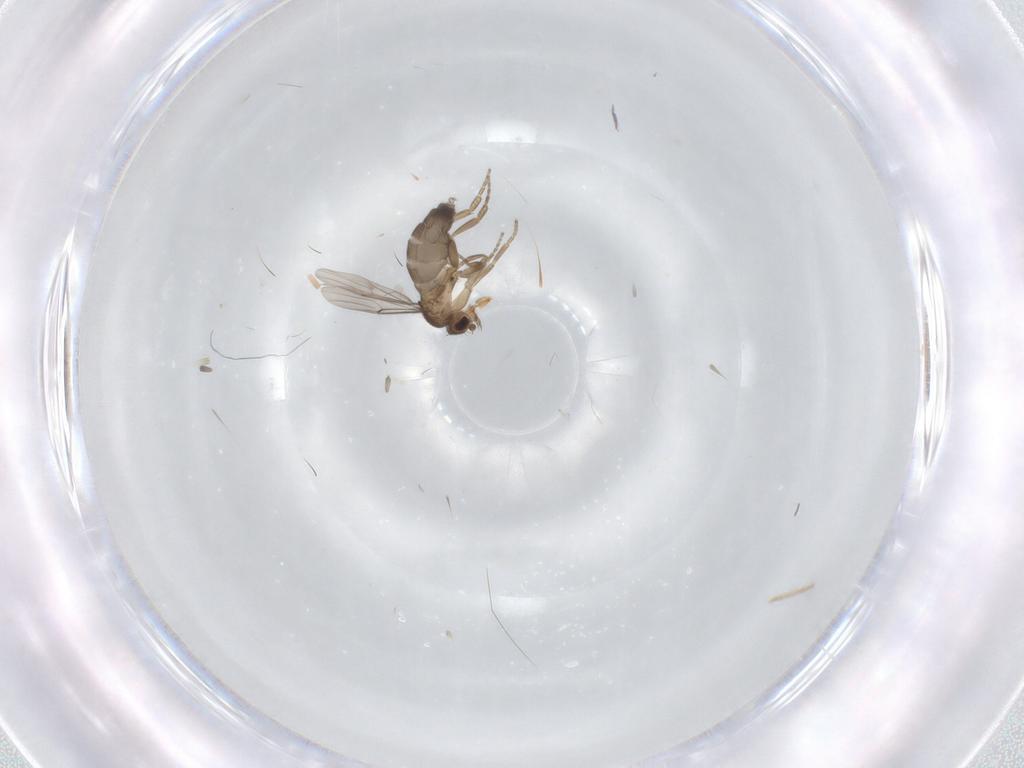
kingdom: Animalia
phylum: Arthropoda
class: Insecta
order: Diptera
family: Phoridae
